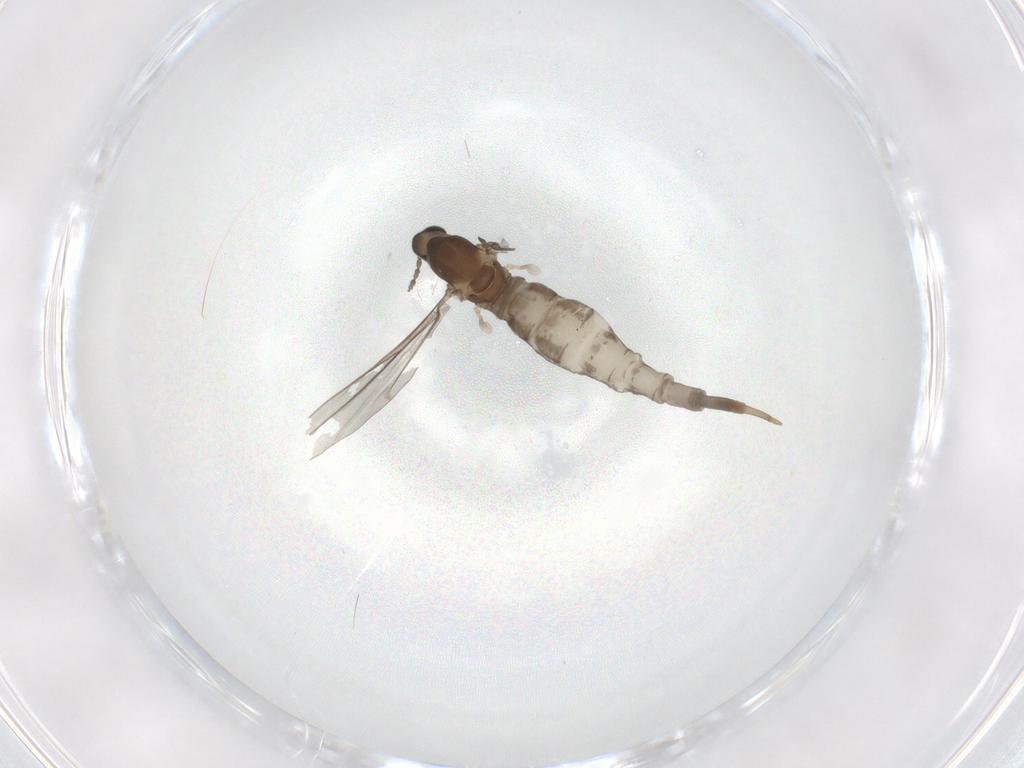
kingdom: Animalia
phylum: Arthropoda
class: Insecta
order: Diptera
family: Cecidomyiidae
